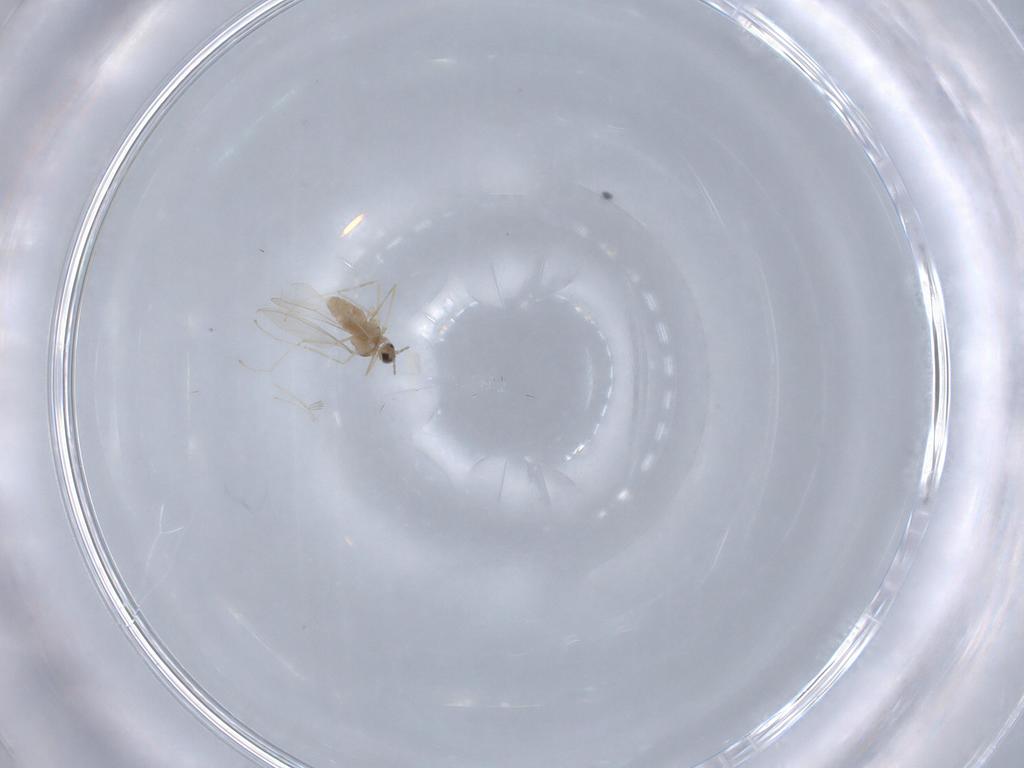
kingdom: Animalia
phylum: Arthropoda
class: Insecta
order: Diptera
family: Cecidomyiidae
